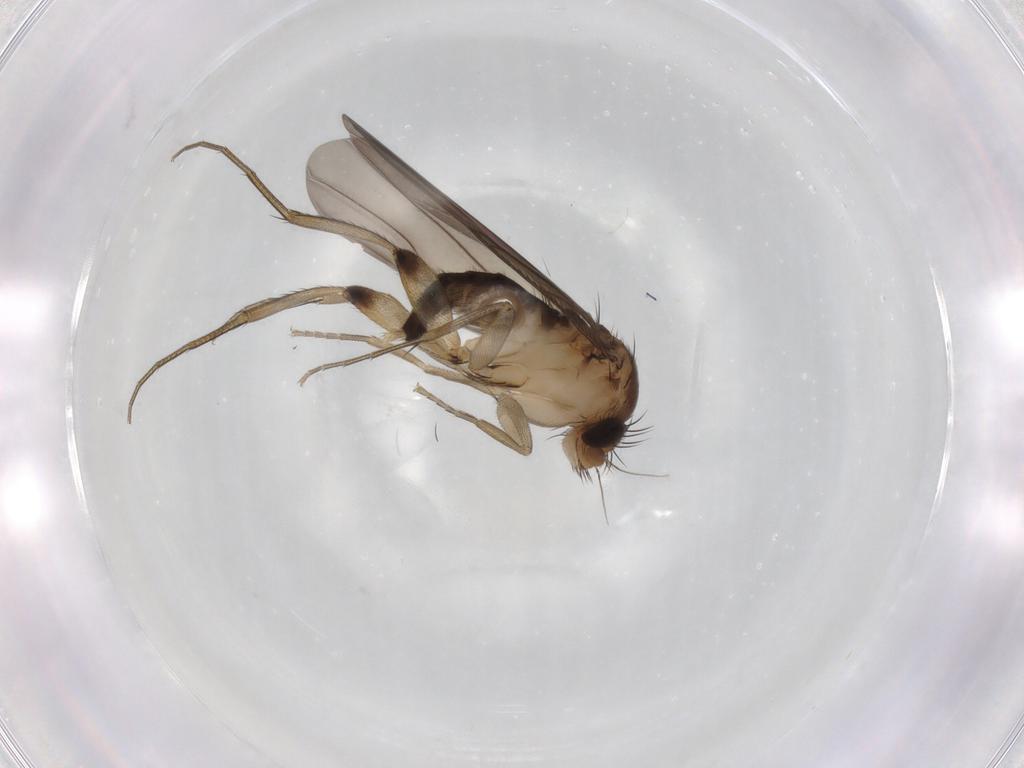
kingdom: Animalia
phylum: Arthropoda
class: Insecta
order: Diptera
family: Phoridae
